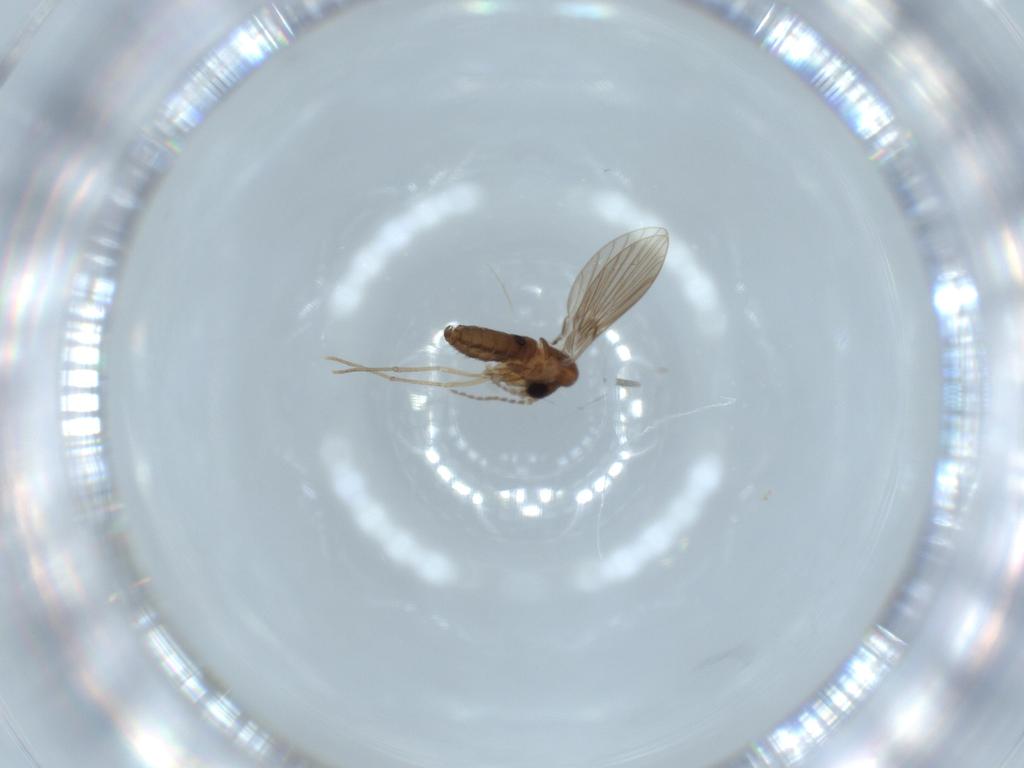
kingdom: Animalia
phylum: Arthropoda
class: Insecta
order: Diptera
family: Psychodidae
